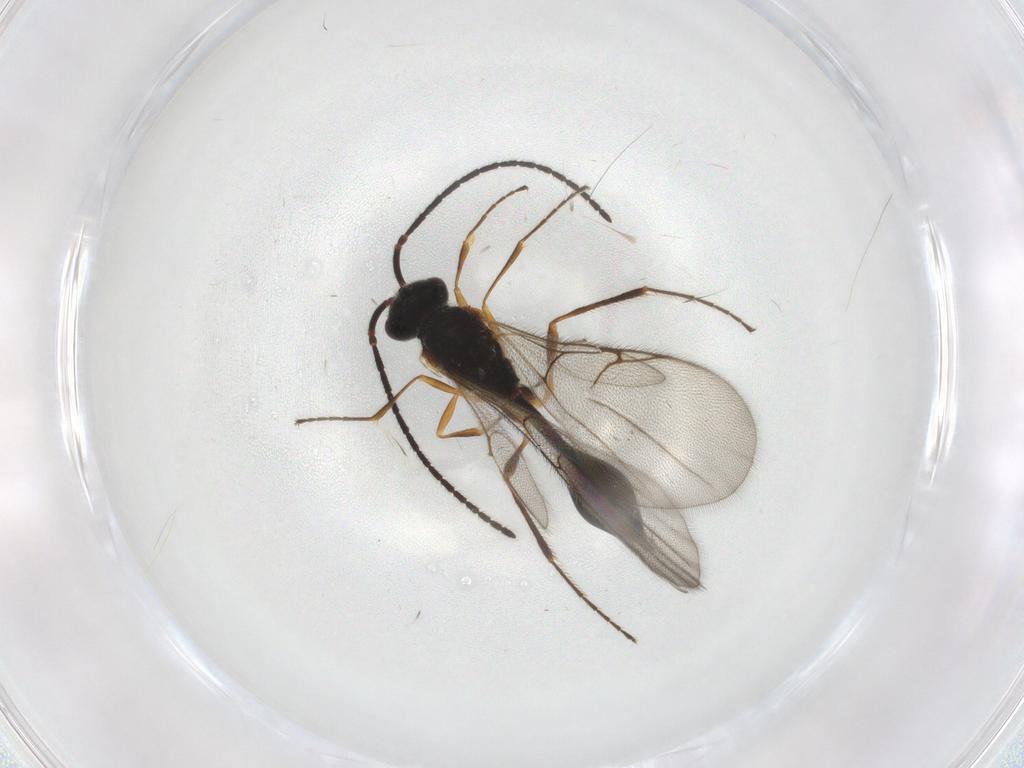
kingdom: Animalia
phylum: Arthropoda
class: Insecta
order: Hymenoptera
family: Diapriidae
